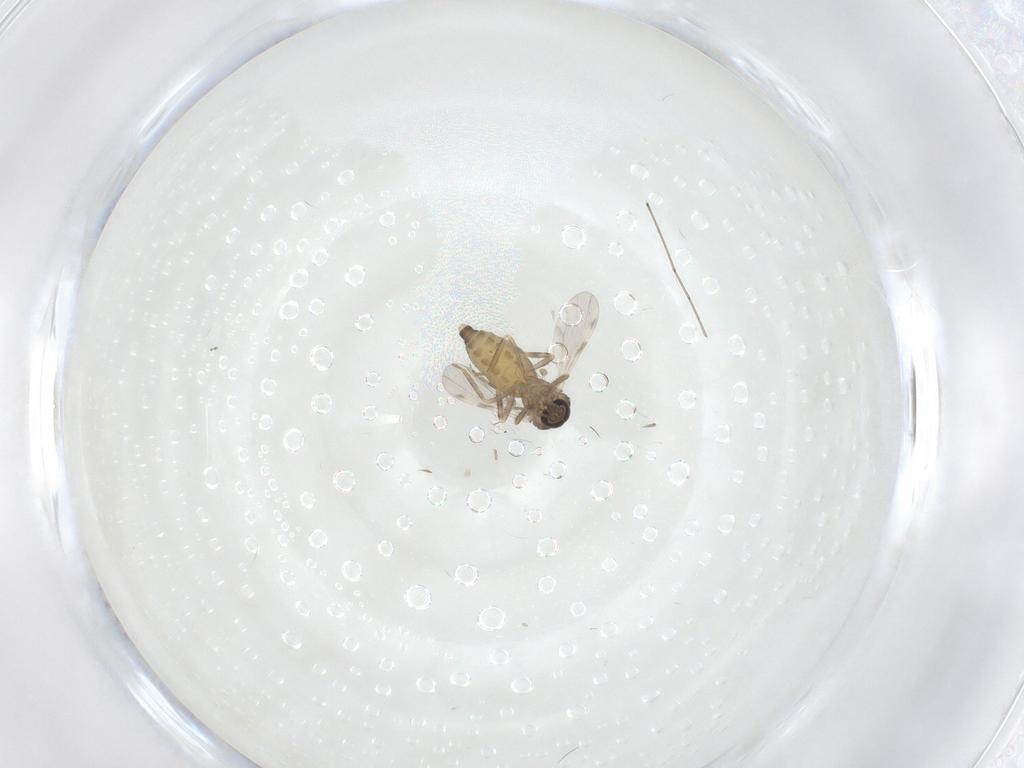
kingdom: Animalia
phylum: Arthropoda
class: Insecta
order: Diptera
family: Ceratopogonidae
